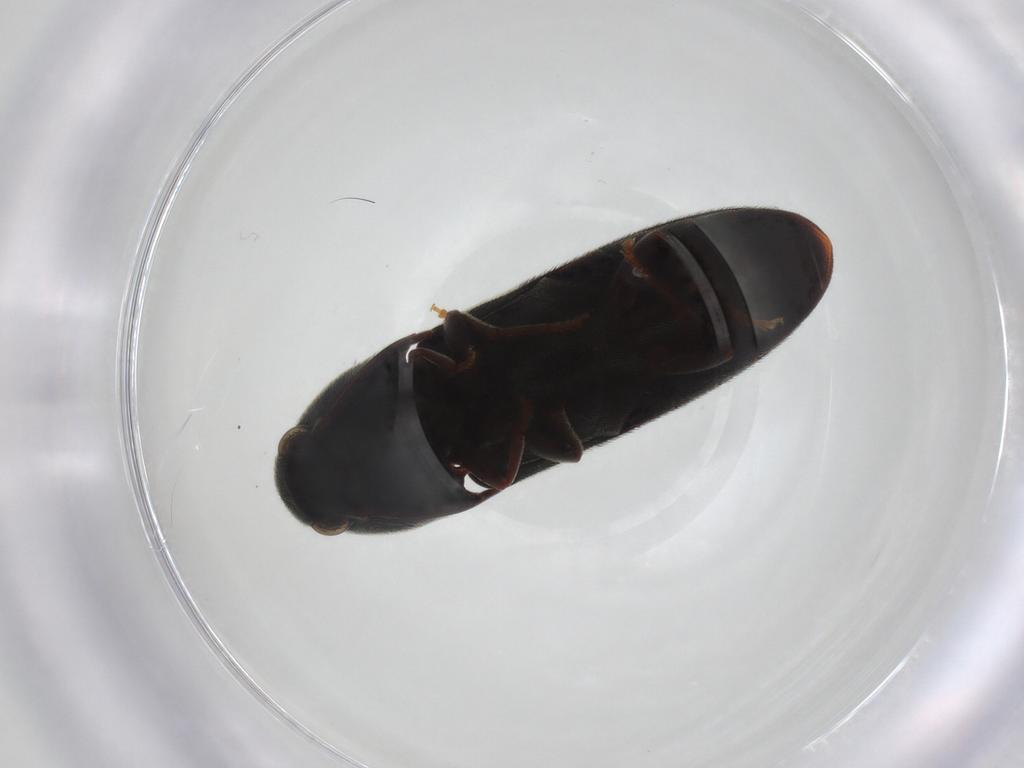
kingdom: Animalia
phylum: Arthropoda
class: Insecta
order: Coleoptera
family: Eucnemidae
